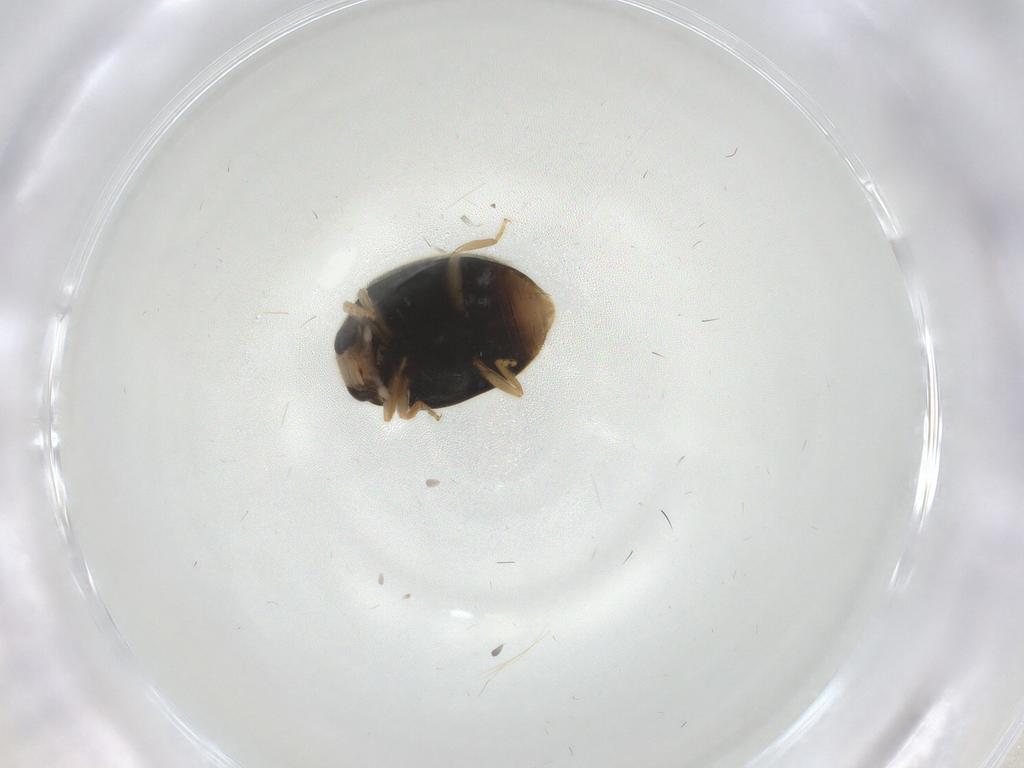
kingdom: Animalia
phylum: Arthropoda
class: Insecta
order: Coleoptera
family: Coccinellidae
